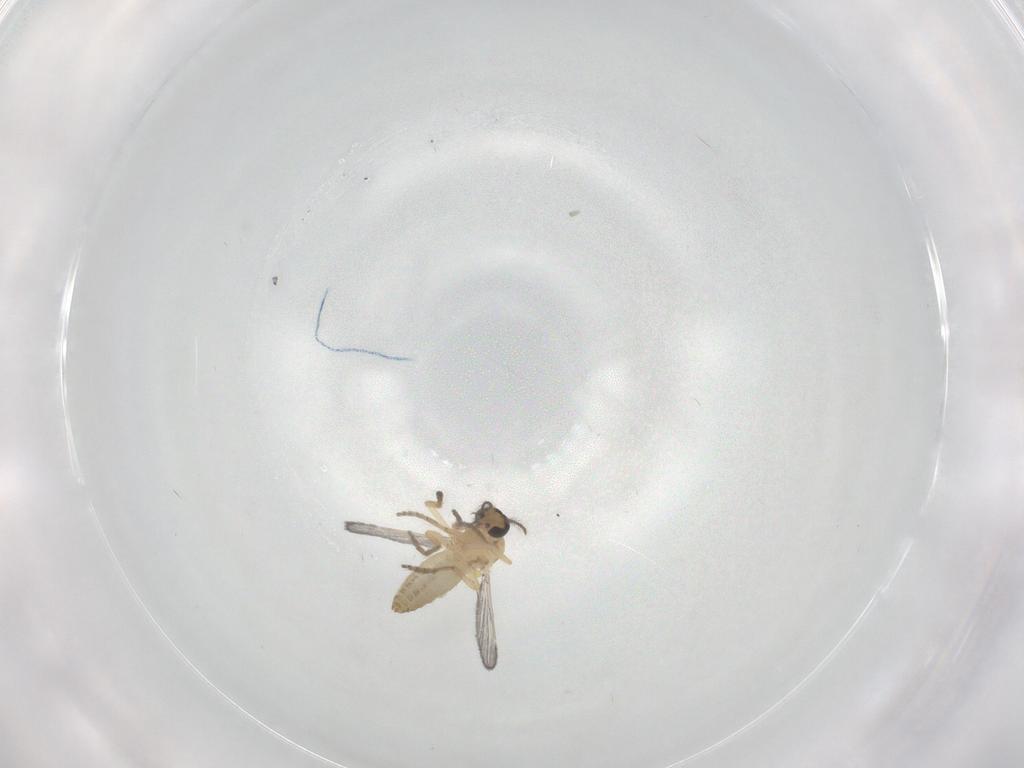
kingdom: Animalia
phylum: Arthropoda
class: Insecta
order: Diptera
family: Ceratopogonidae
